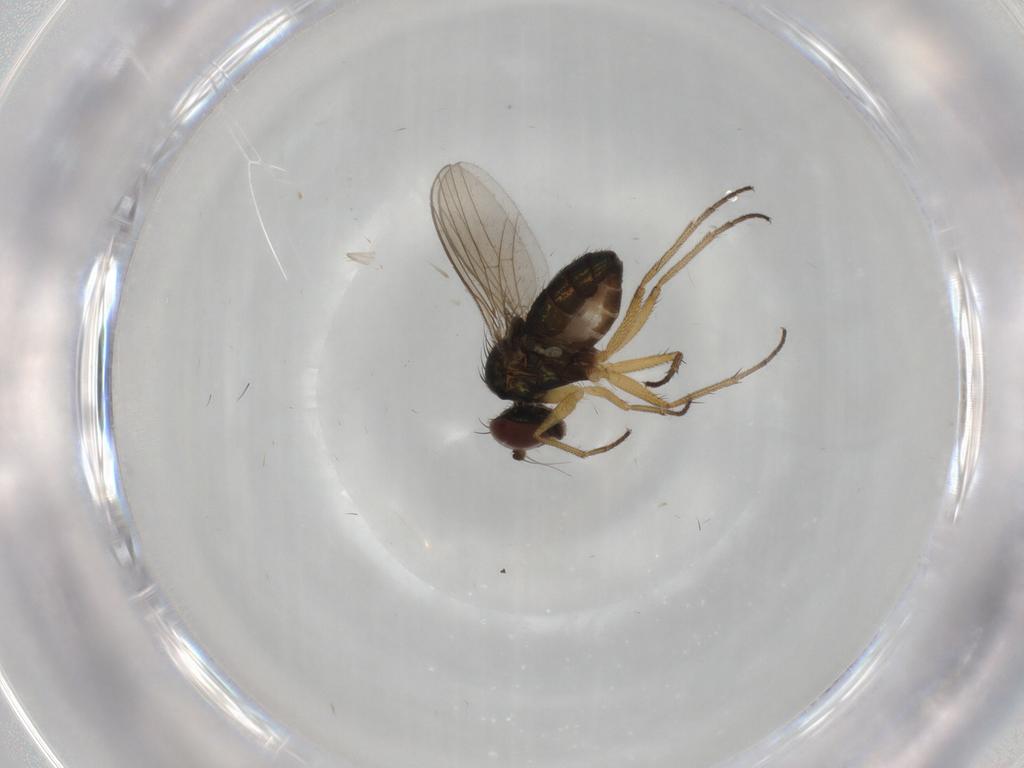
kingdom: Animalia
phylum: Arthropoda
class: Insecta
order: Diptera
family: Dolichopodidae
